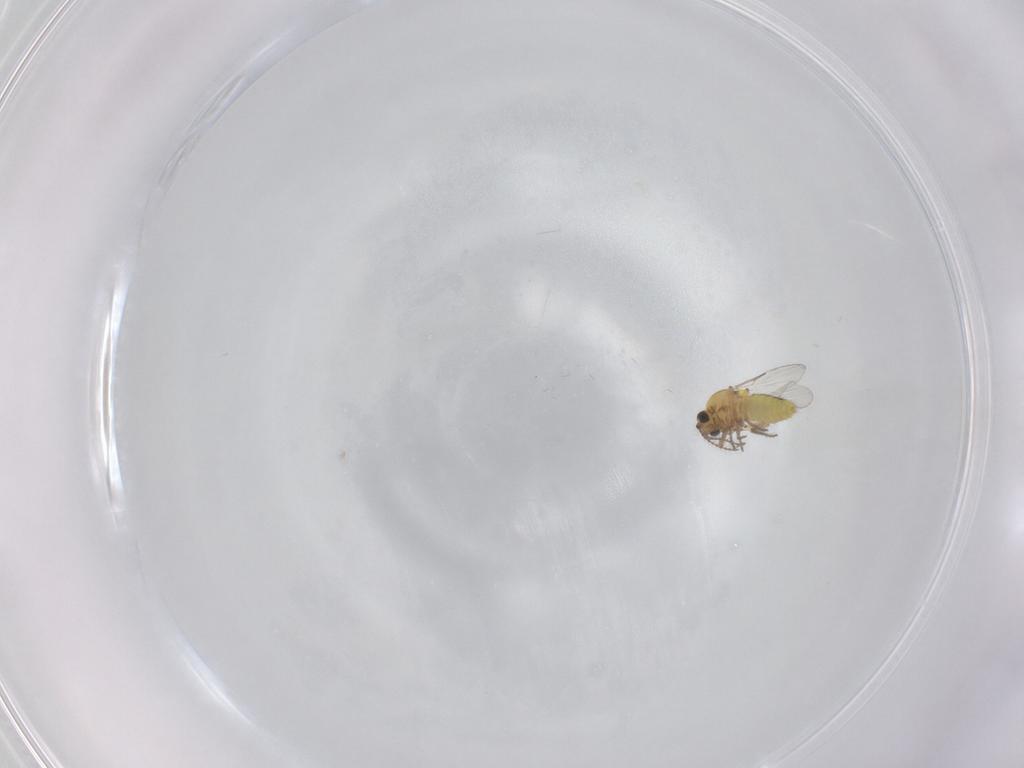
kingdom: Animalia
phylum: Arthropoda
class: Insecta
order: Diptera
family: Ceratopogonidae
